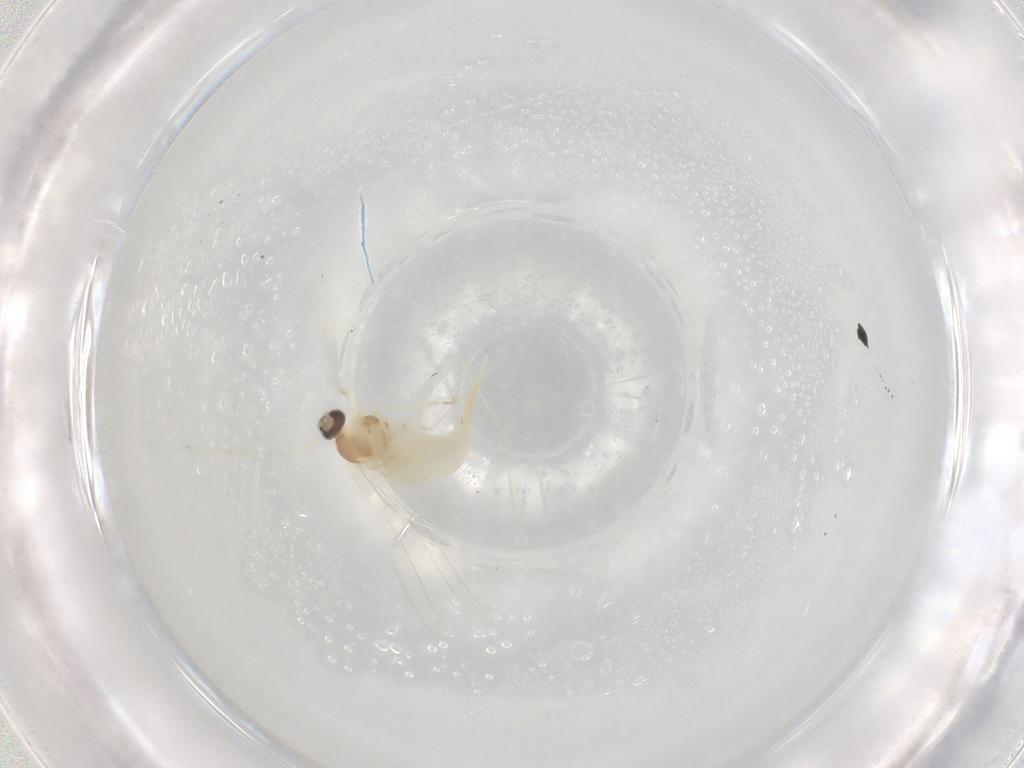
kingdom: Animalia
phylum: Arthropoda
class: Insecta
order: Diptera
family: Cecidomyiidae
